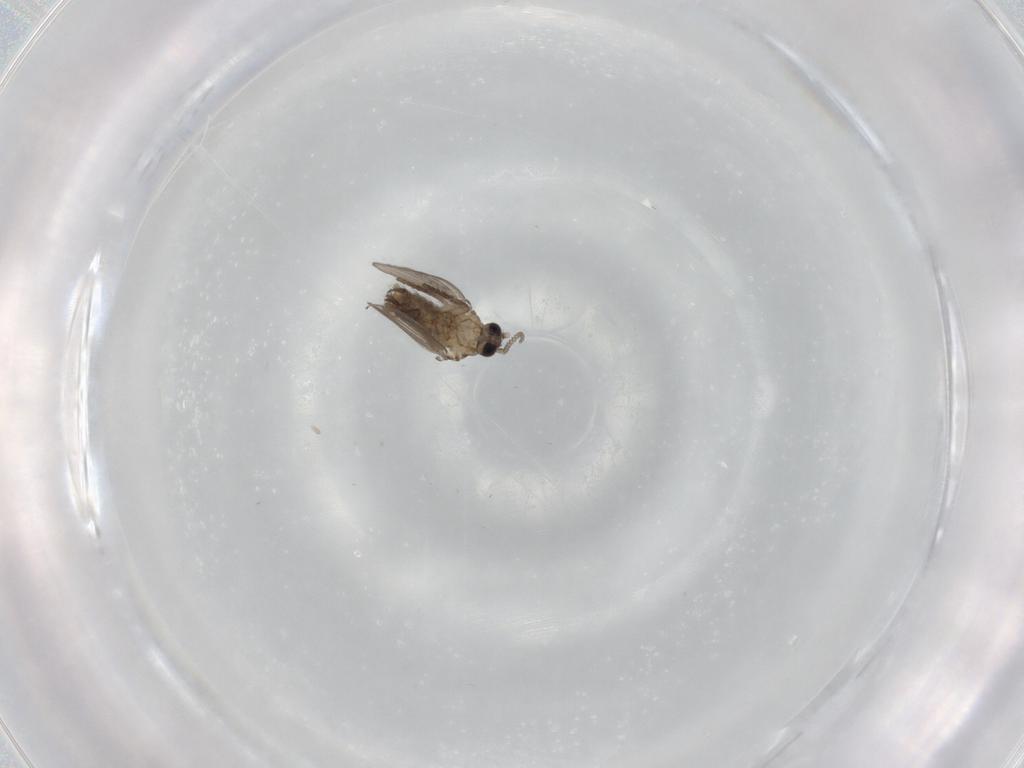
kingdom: Animalia
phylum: Arthropoda
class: Insecta
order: Diptera
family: Psychodidae
